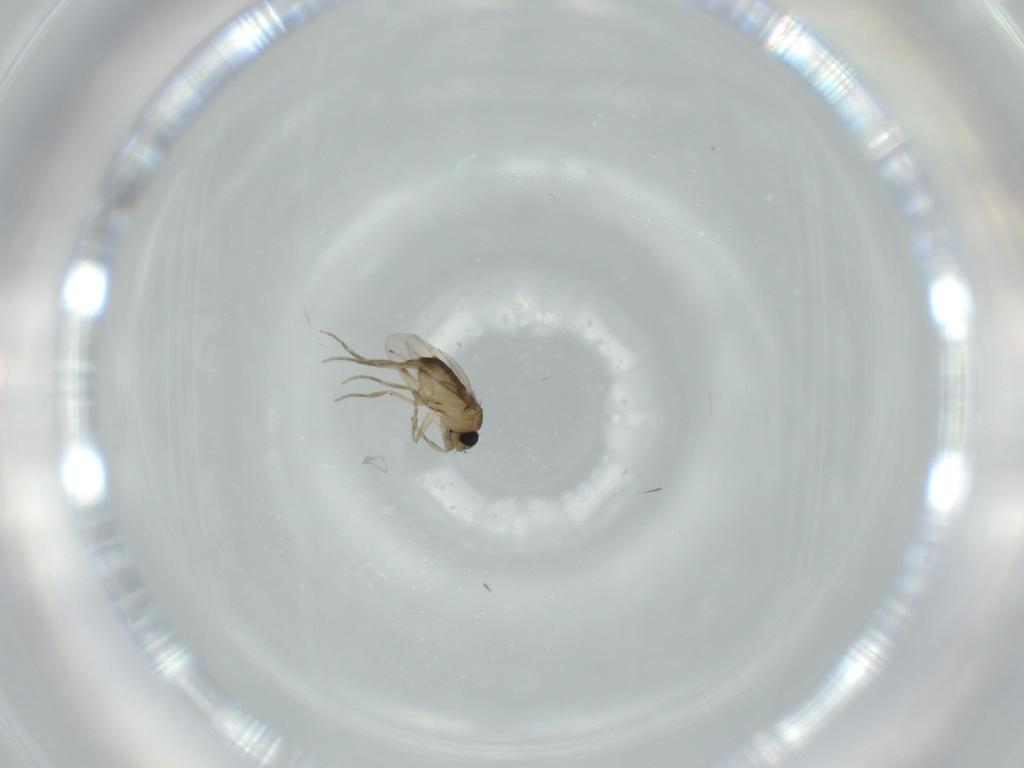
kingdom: Animalia
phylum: Arthropoda
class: Insecta
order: Diptera
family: Phoridae
